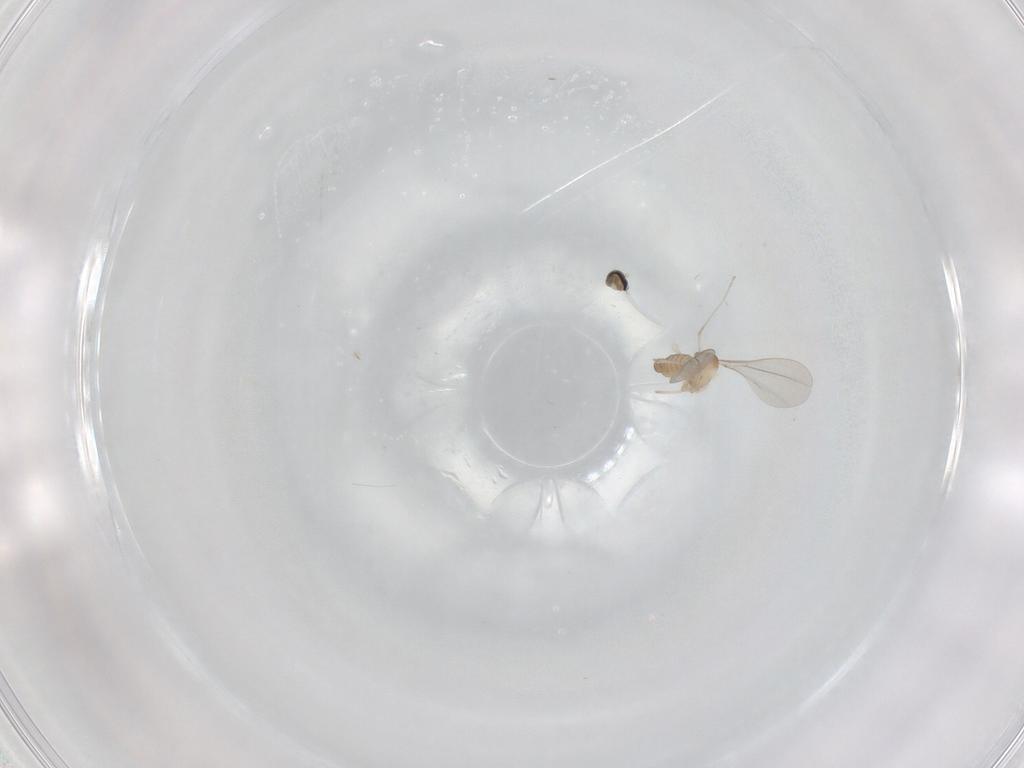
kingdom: Animalia
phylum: Arthropoda
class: Insecta
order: Diptera
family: Cecidomyiidae
